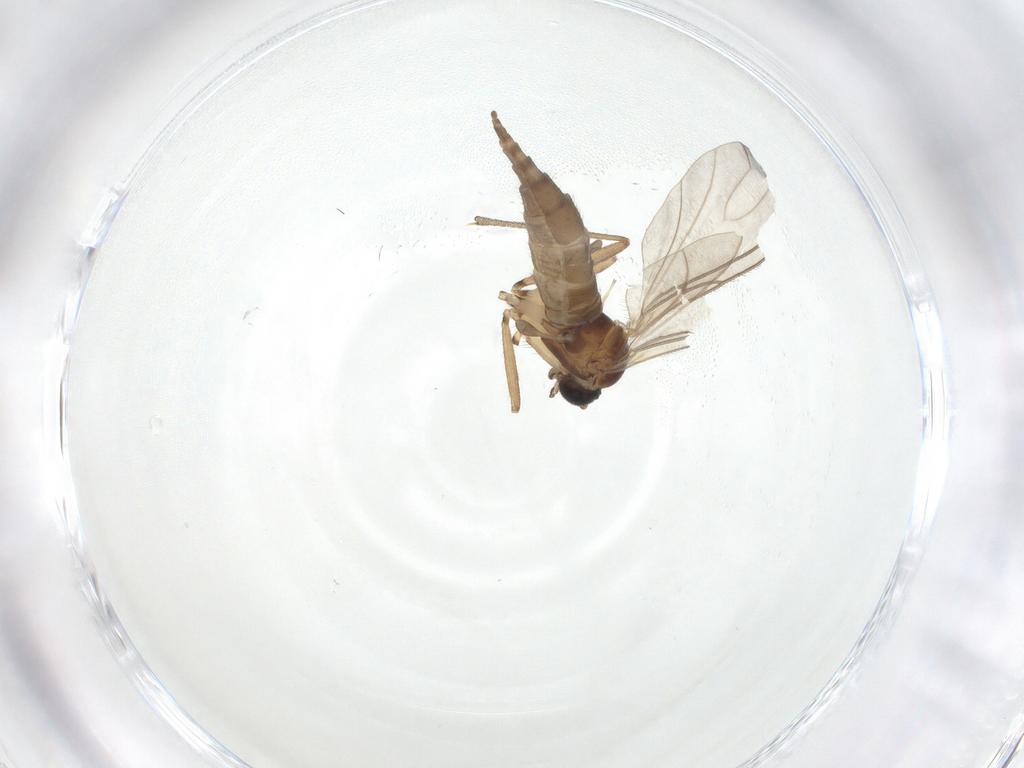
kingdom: Animalia
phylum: Arthropoda
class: Insecta
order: Diptera
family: Sciaridae
